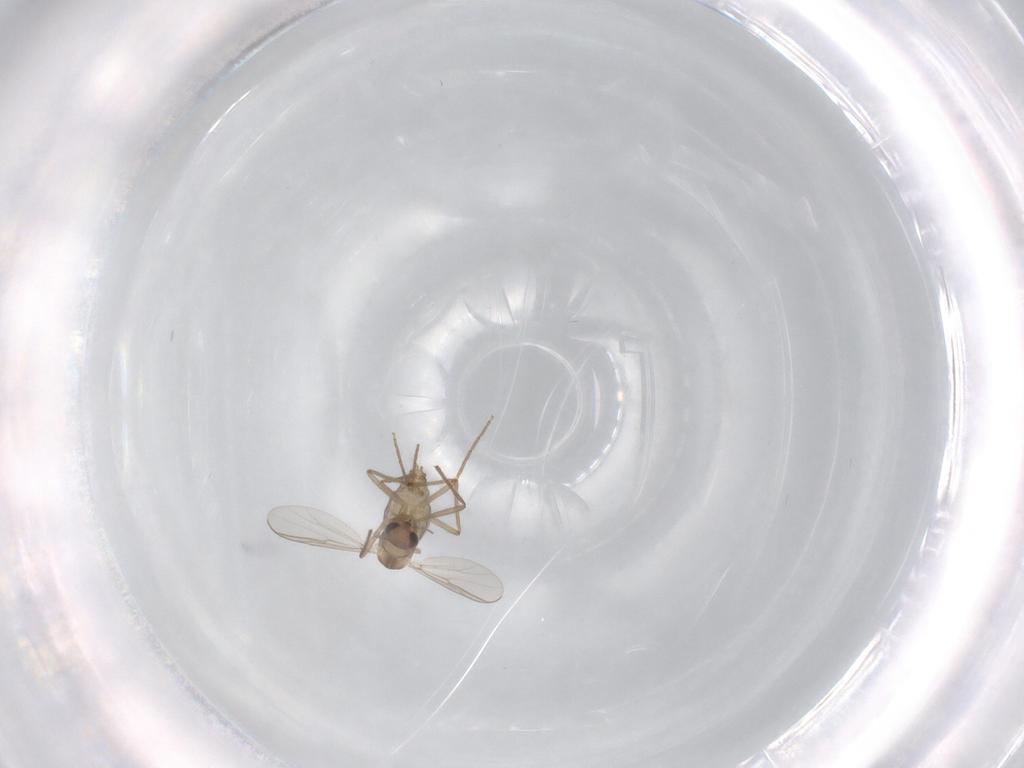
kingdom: Animalia
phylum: Arthropoda
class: Insecta
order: Diptera
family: Chironomidae
